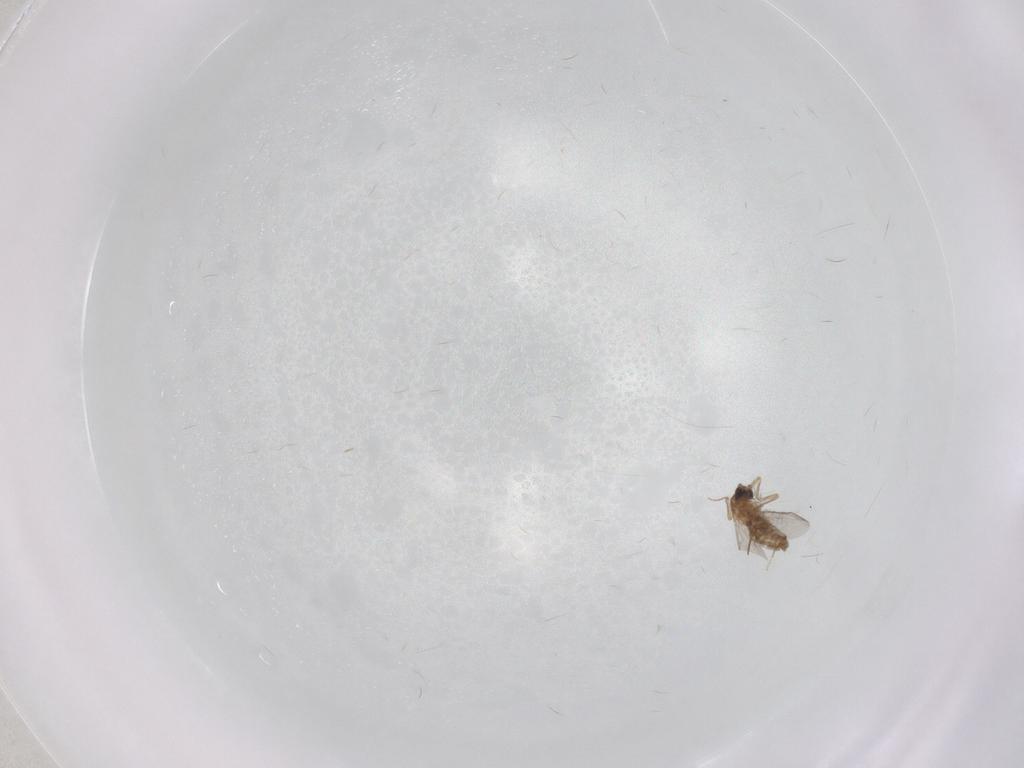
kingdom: Animalia
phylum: Arthropoda
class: Insecta
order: Diptera
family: Chironomidae
